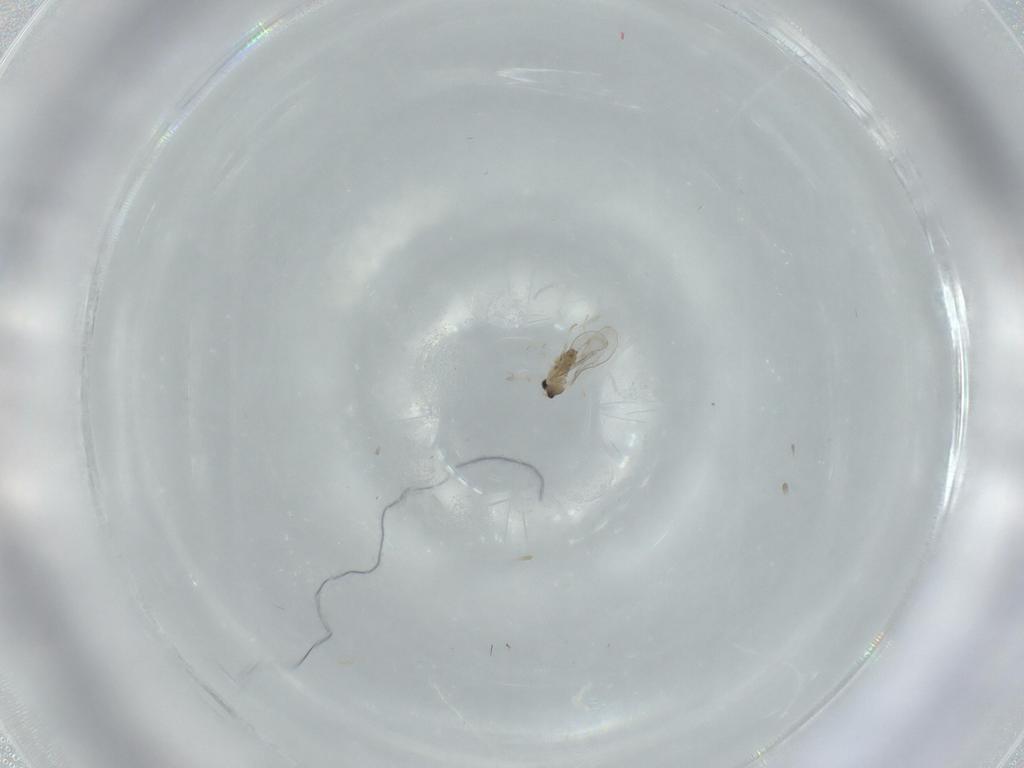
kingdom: Animalia
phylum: Arthropoda
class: Insecta
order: Diptera
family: Cecidomyiidae
